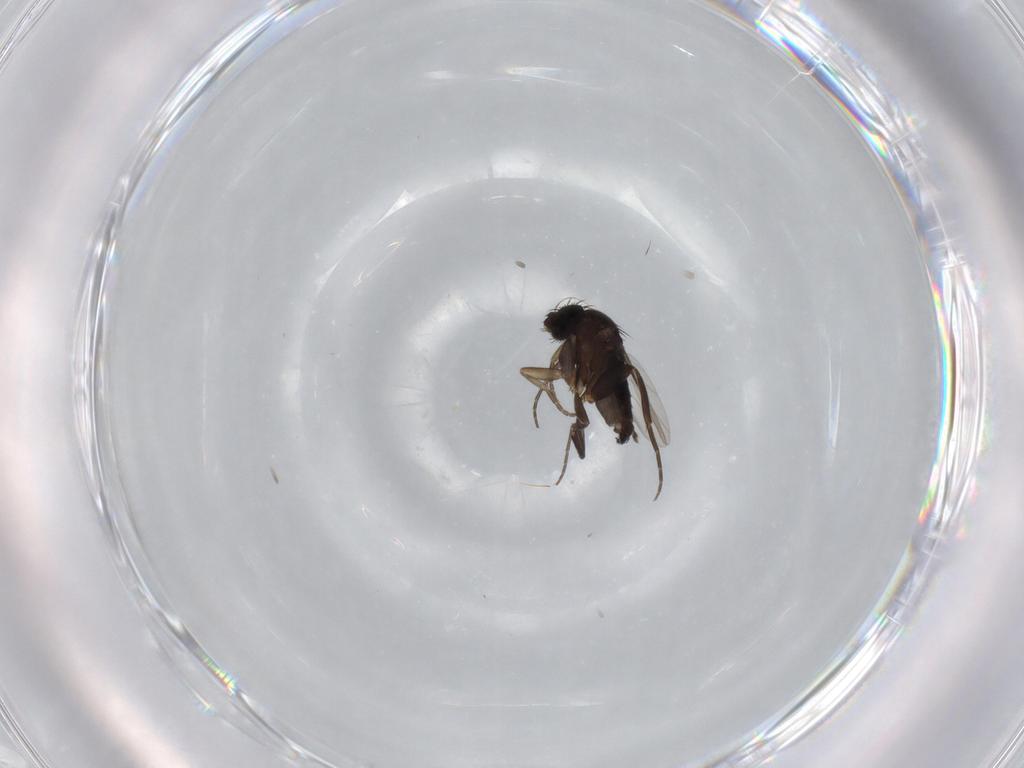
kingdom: Animalia
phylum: Arthropoda
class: Insecta
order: Diptera
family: Phoridae
